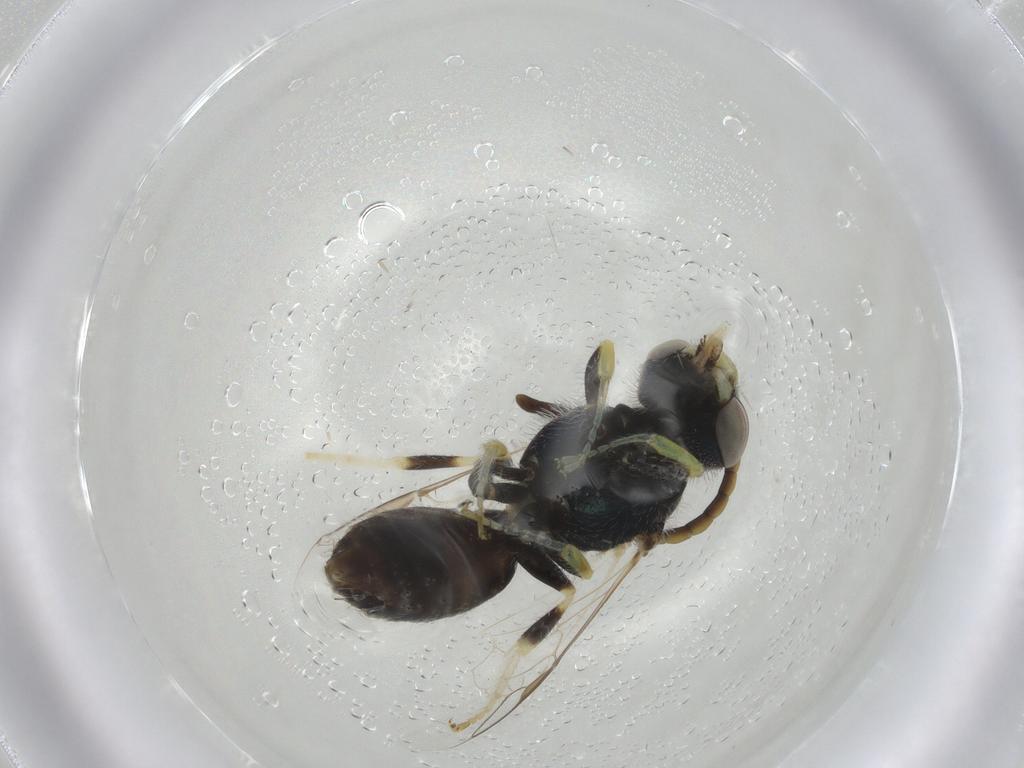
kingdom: Animalia
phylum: Arthropoda
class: Insecta
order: Hymenoptera
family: Halictidae
